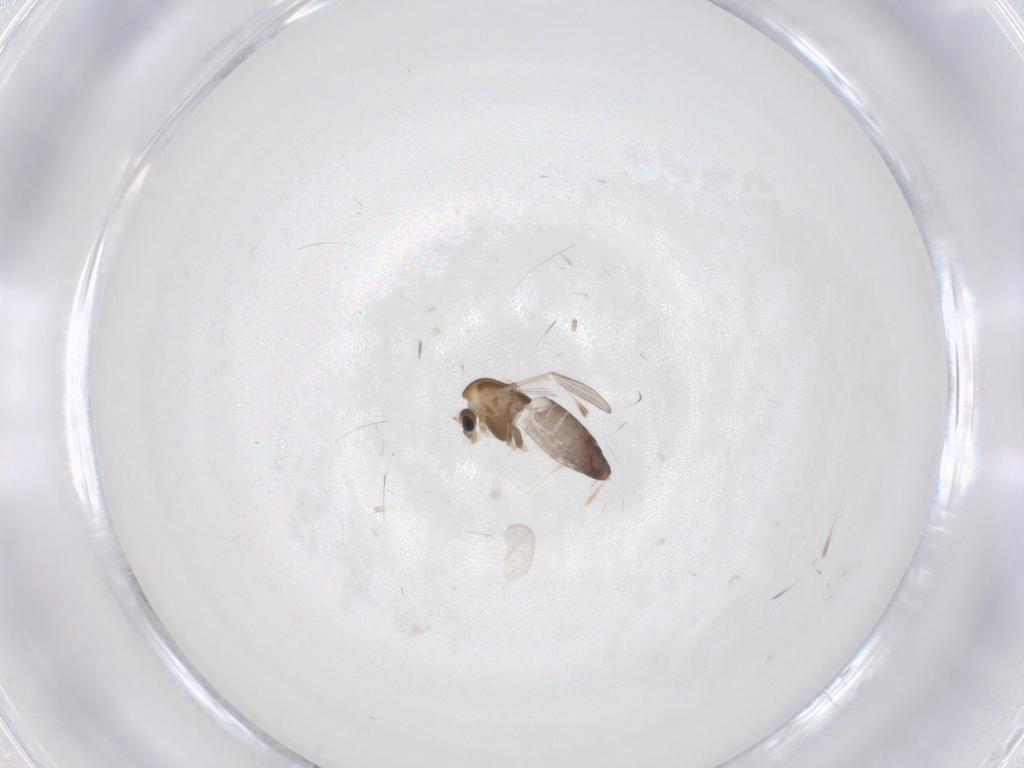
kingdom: Animalia
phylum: Arthropoda
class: Insecta
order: Diptera
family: Chironomidae
